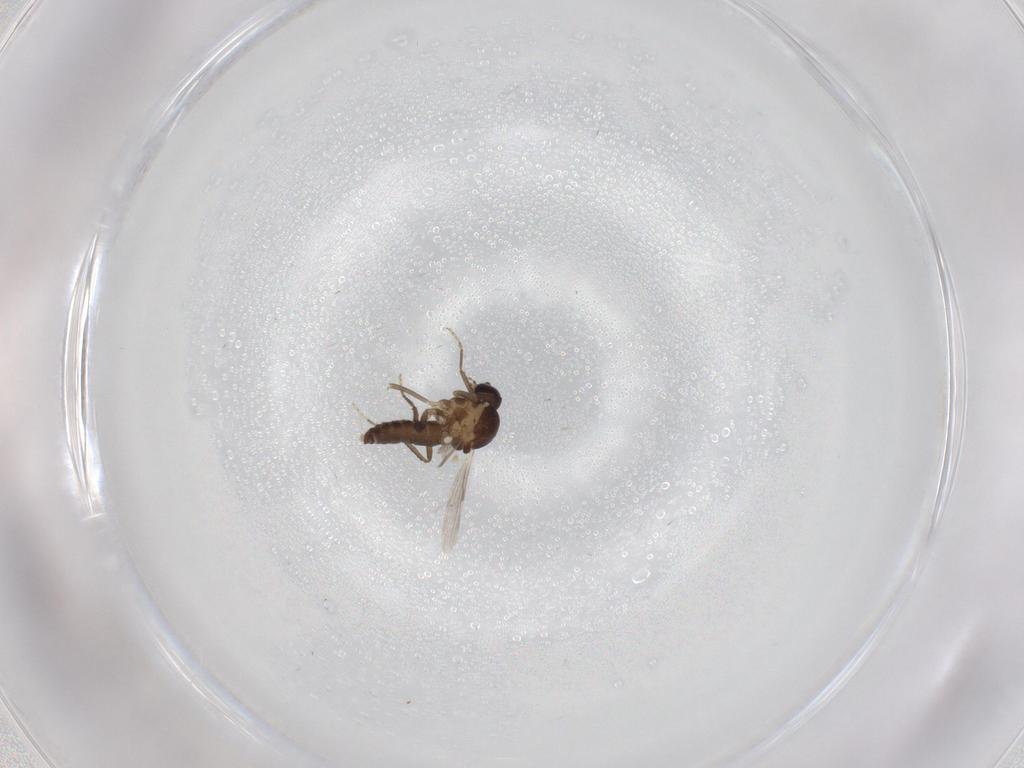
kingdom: Animalia
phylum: Arthropoda
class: Insecta
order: Diptera
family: Ceratopogonidae
